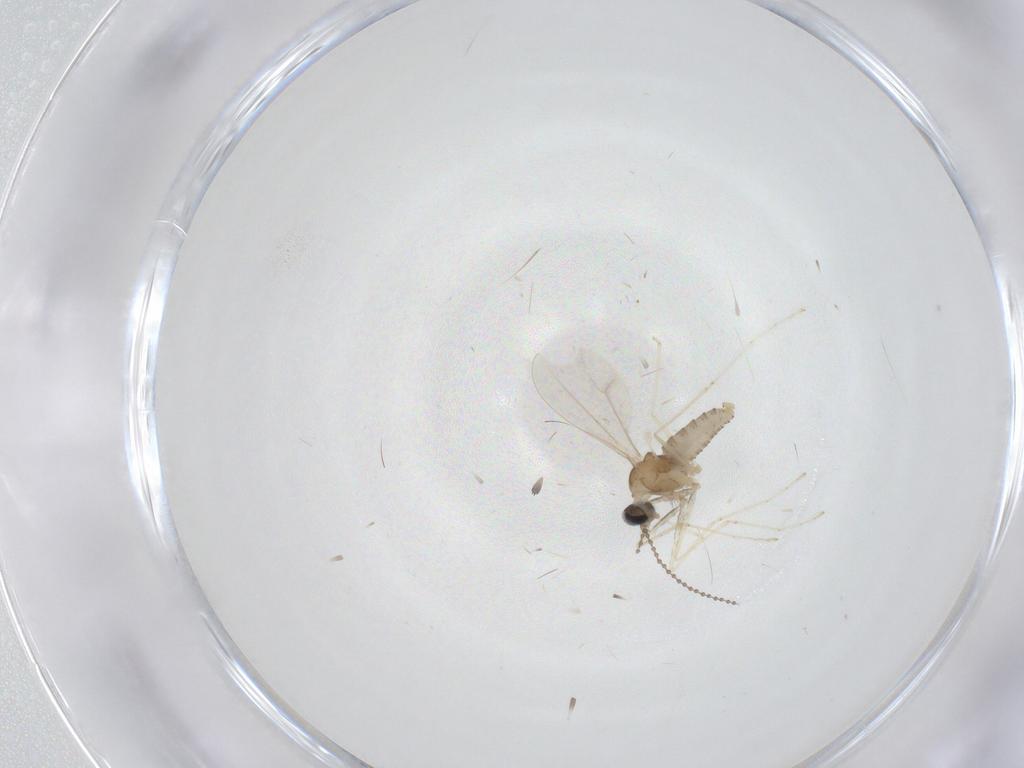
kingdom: Animalia
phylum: Arthropoda
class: Insecta
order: Diptera
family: Cecidomyiidae
